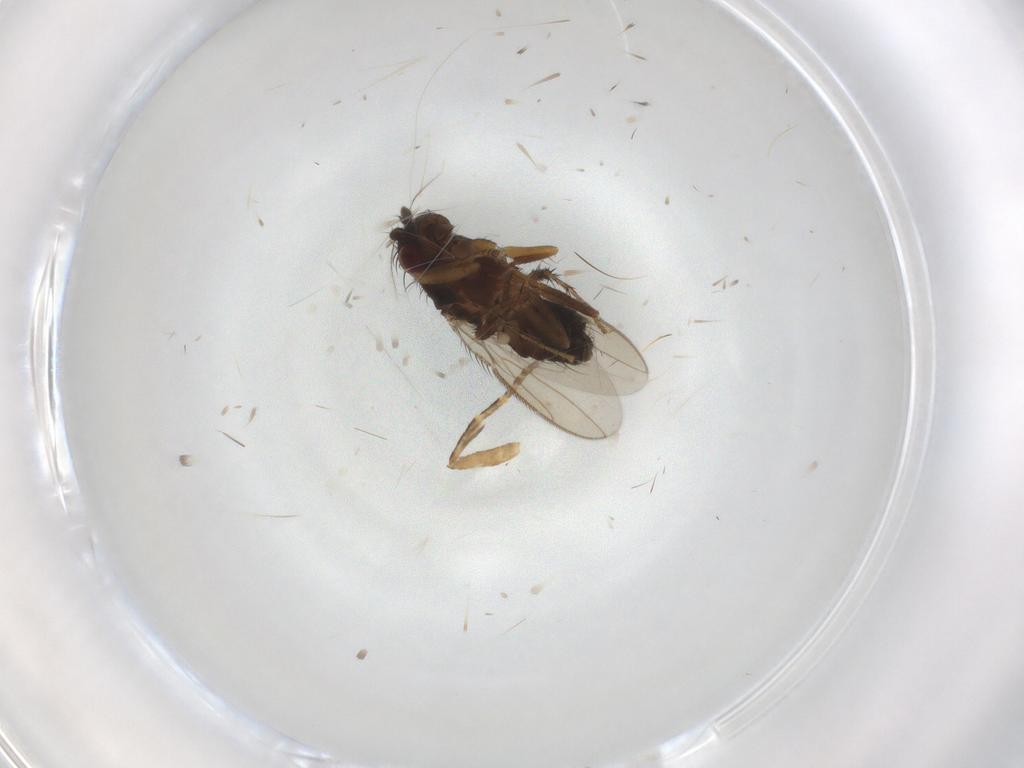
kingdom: Animalia
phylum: Arthropoda
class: Insecta
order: Diptera
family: Sphaeroceridae
